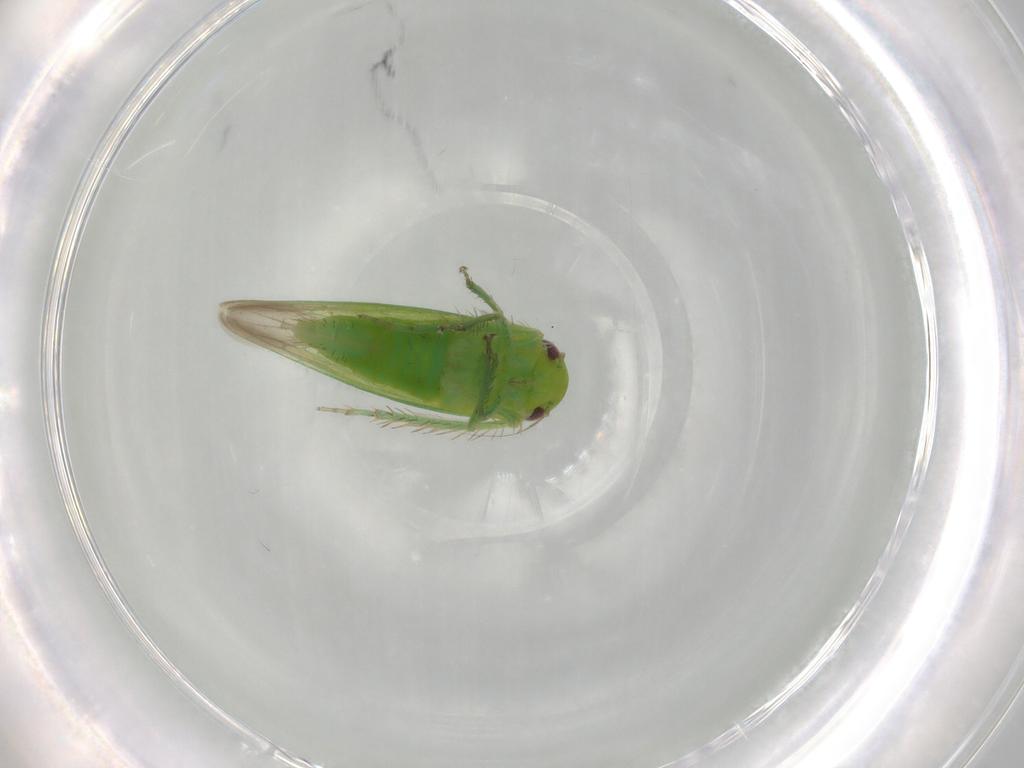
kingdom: Animalia
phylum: Arthropoda
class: Insecta
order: Hemiptera
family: Cicadellidae
